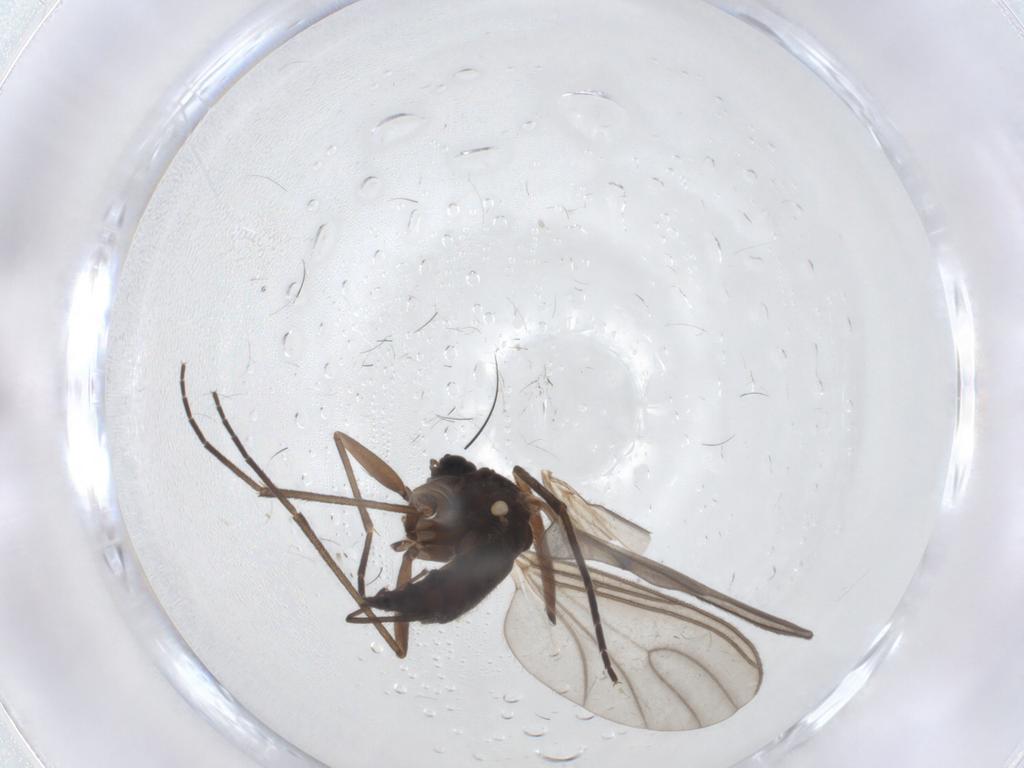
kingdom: Animalia
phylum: Arthropoda
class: Insecta
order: Diptera
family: Sciaridae
